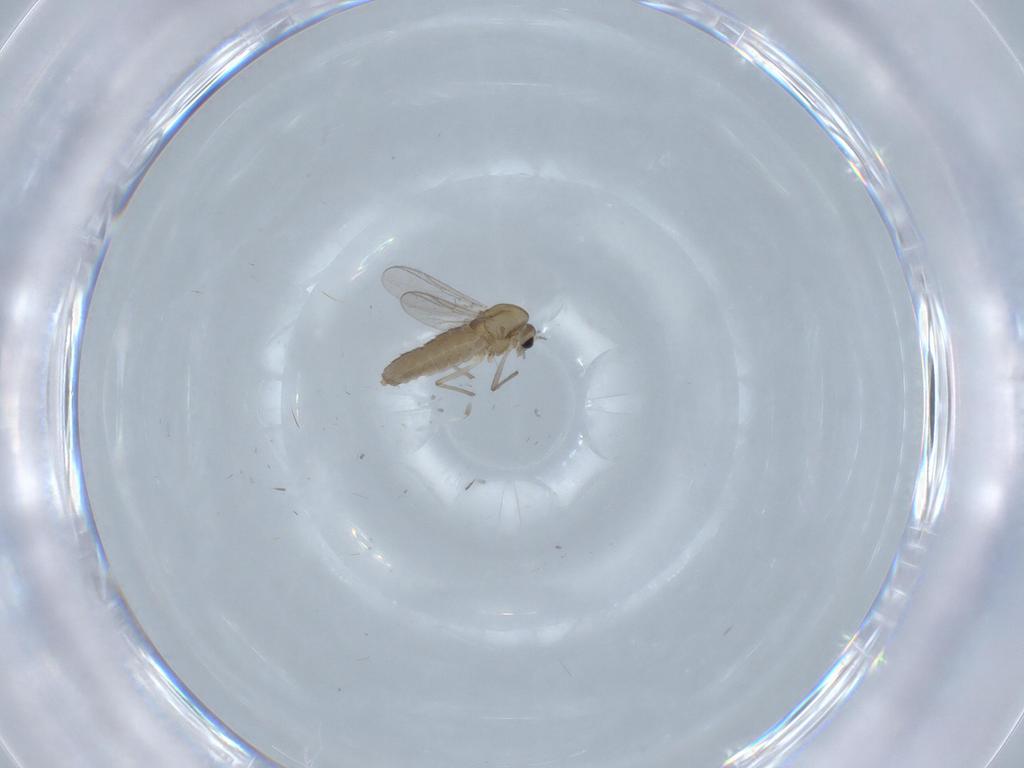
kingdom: Animalia
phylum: Arthropoda
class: Insecta
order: Diptera
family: Chironomidae
